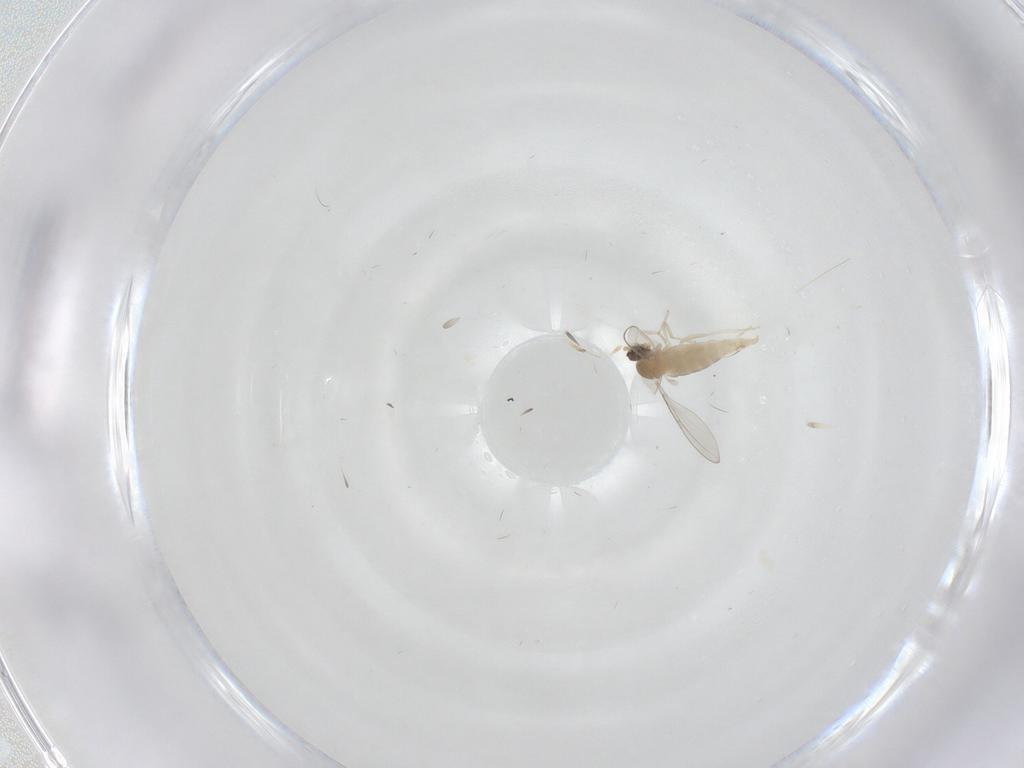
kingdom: Animalia
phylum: Arthropoda
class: Insecta
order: Diptera
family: Cecidomyiidae
